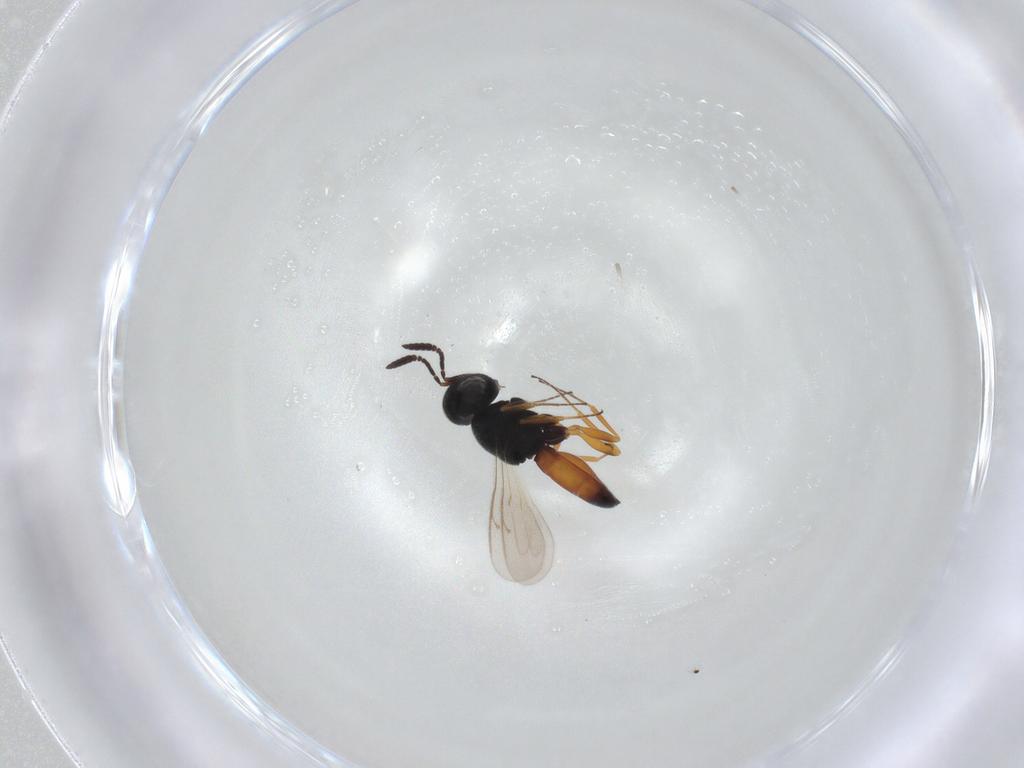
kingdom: Animalia
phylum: Arthropoda
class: Insecta
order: Hymenoptera
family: Scelionidae
